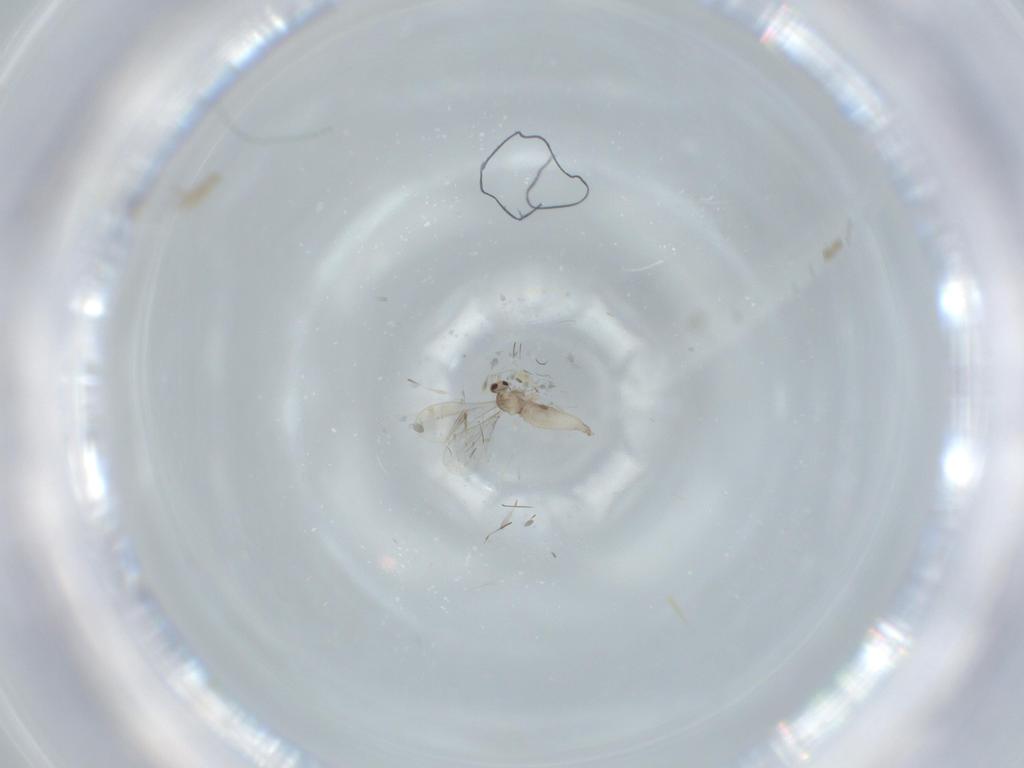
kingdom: Animalia
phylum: Arthropoda
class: Insecta
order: Diptera
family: Cecidomyiidae
